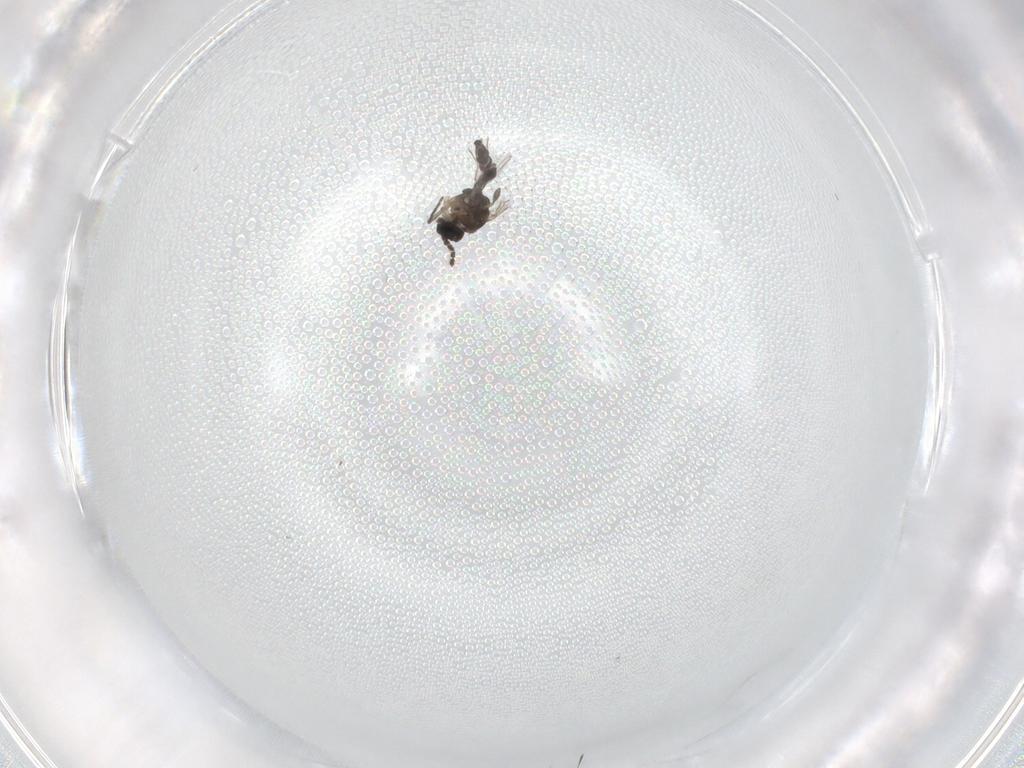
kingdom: Animalia
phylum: Arthropoda
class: Insecta
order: Diptera
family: Sciaridae
